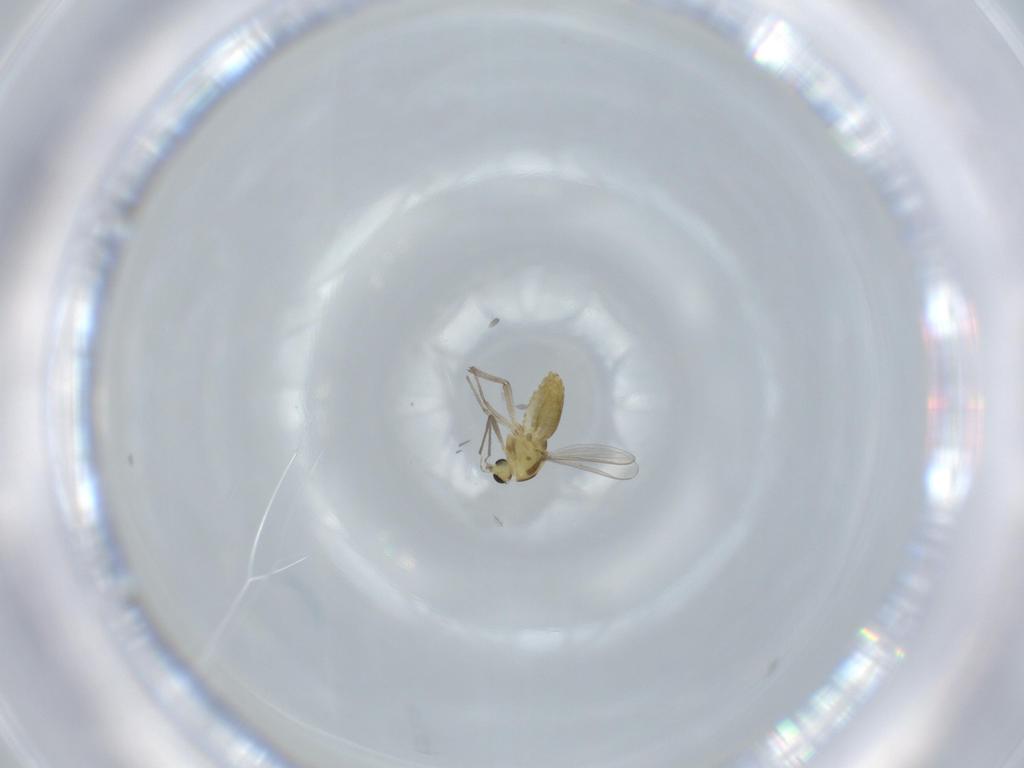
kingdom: Animalia
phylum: Arthropoda
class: Insecta
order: Diptera
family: Chironomidae
